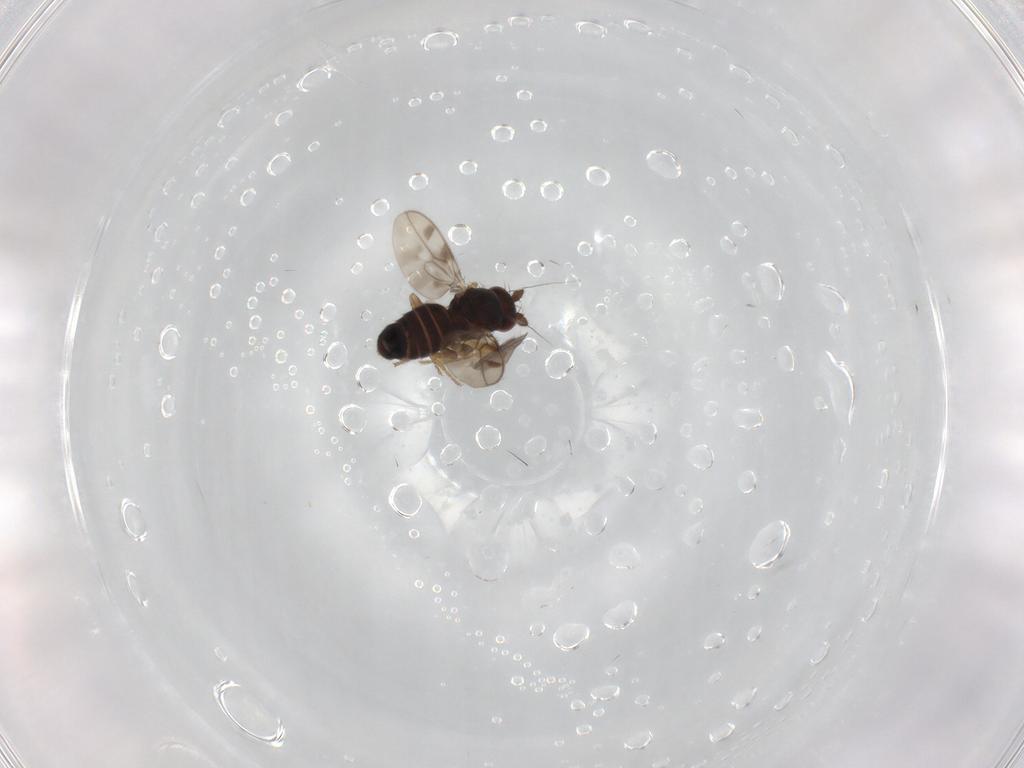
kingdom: Animalia
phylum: Arthropoda
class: Insecta
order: Diptera
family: Sphaeroceridae
